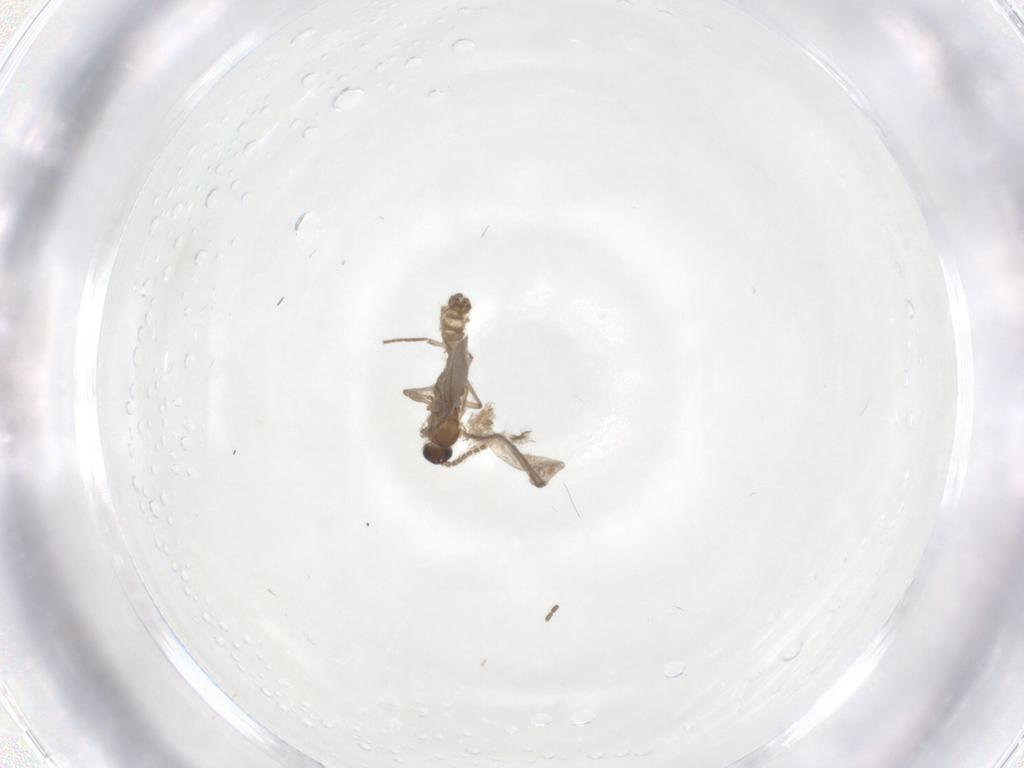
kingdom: Animalia
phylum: Arthropoda
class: Insecta
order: Diptera
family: Sciaridae
